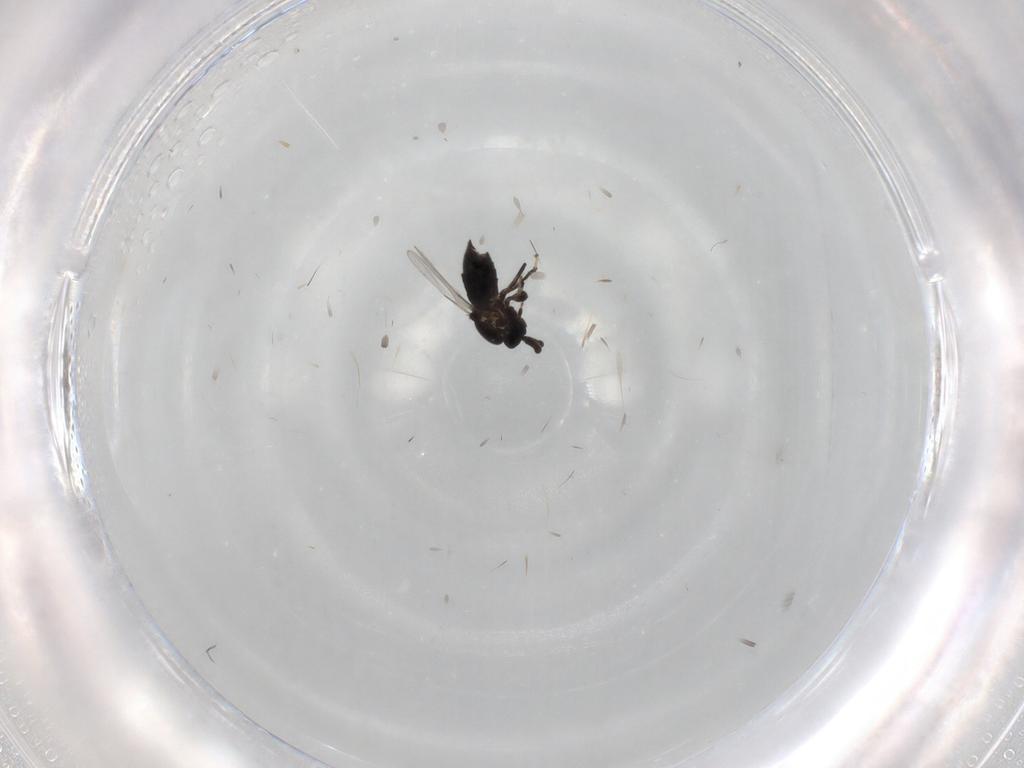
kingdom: Animalia
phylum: Arthropoda
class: Insecta
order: Diptera
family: Scatopsidae
